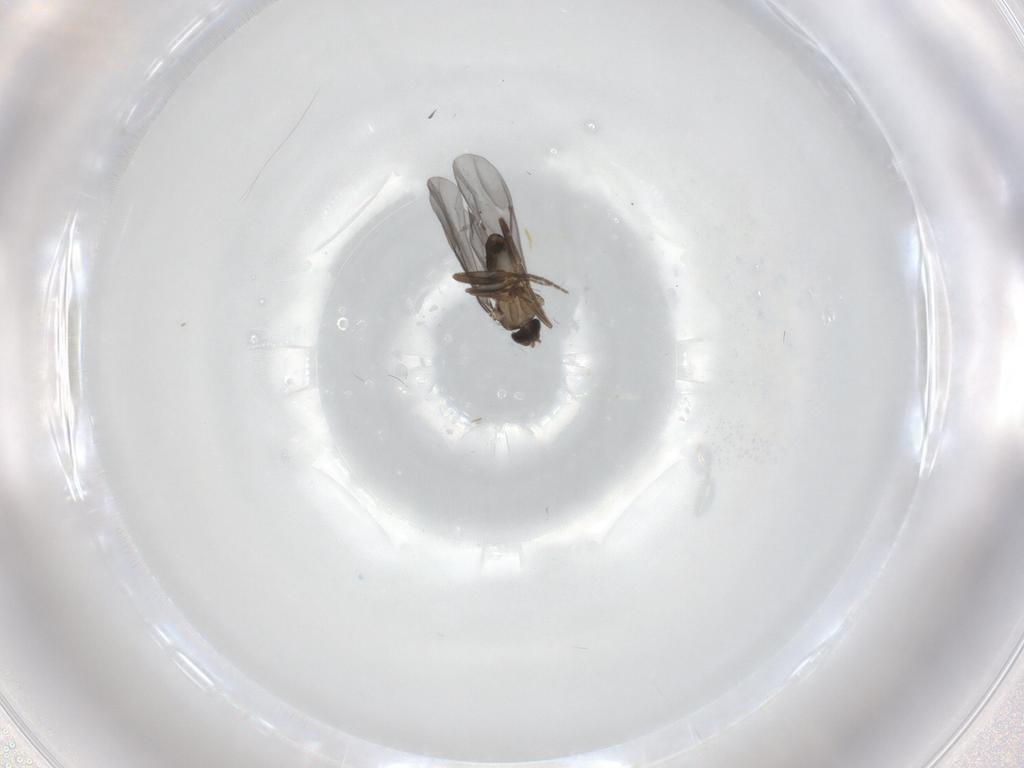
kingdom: Animalia
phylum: Arthropoda
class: Insecta
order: Diptera
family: Phoridae
